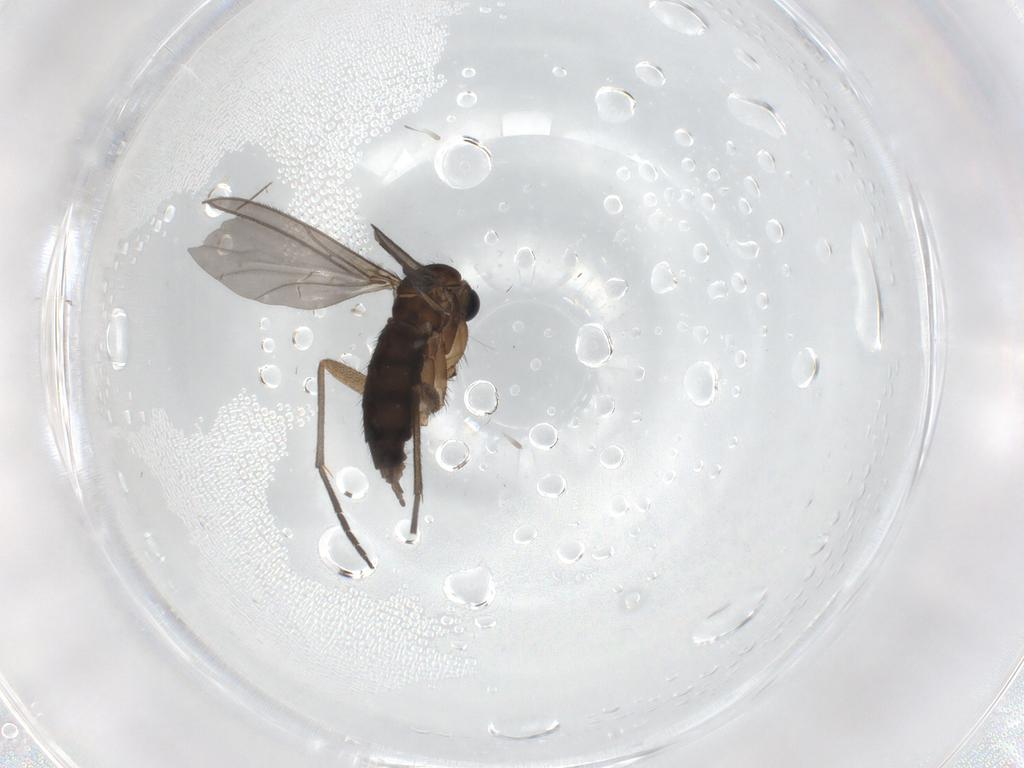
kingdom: Animalia
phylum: Arthropoda
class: Insecta
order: Diptera
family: Sciaridae
